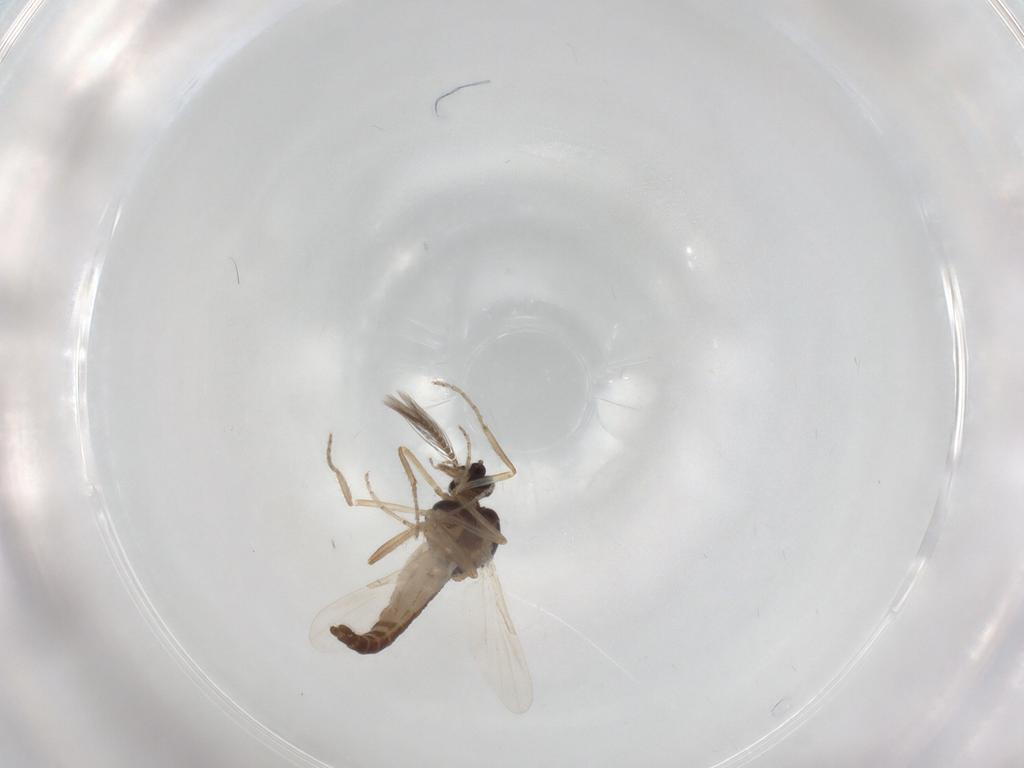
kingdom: Animalia
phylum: Arthropoda
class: Insecta
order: Diptera
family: Ceratopogonidae
